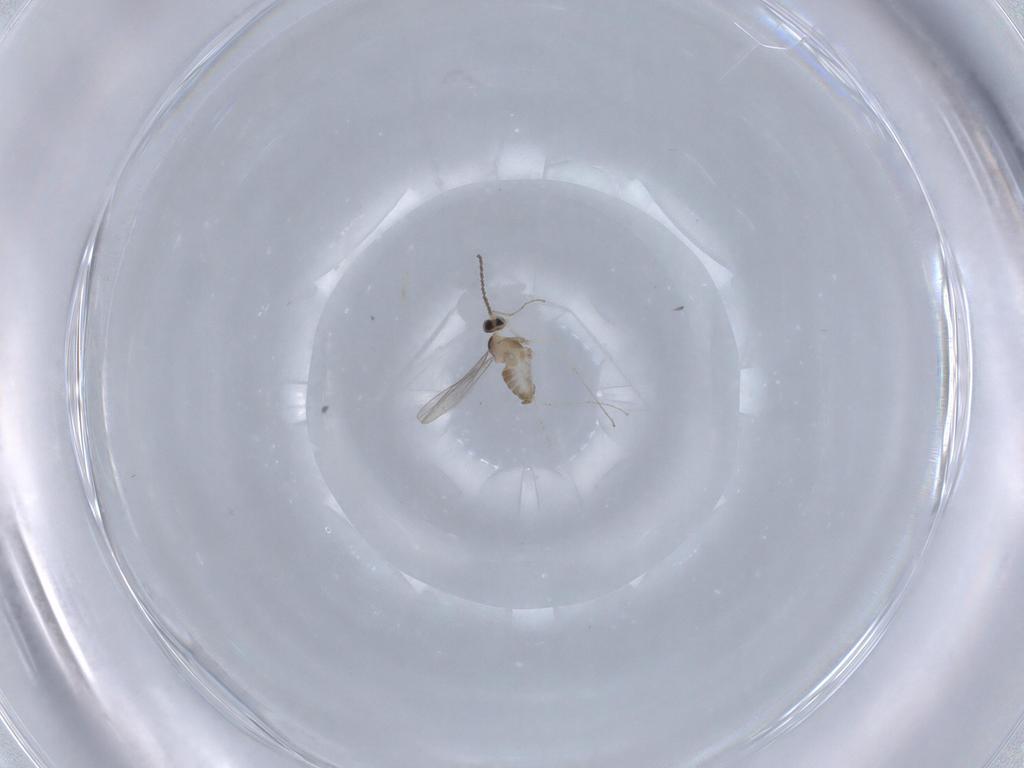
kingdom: Animalia
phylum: Arthropoda
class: Insecta
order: Diptera
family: Cecidomyiidae
